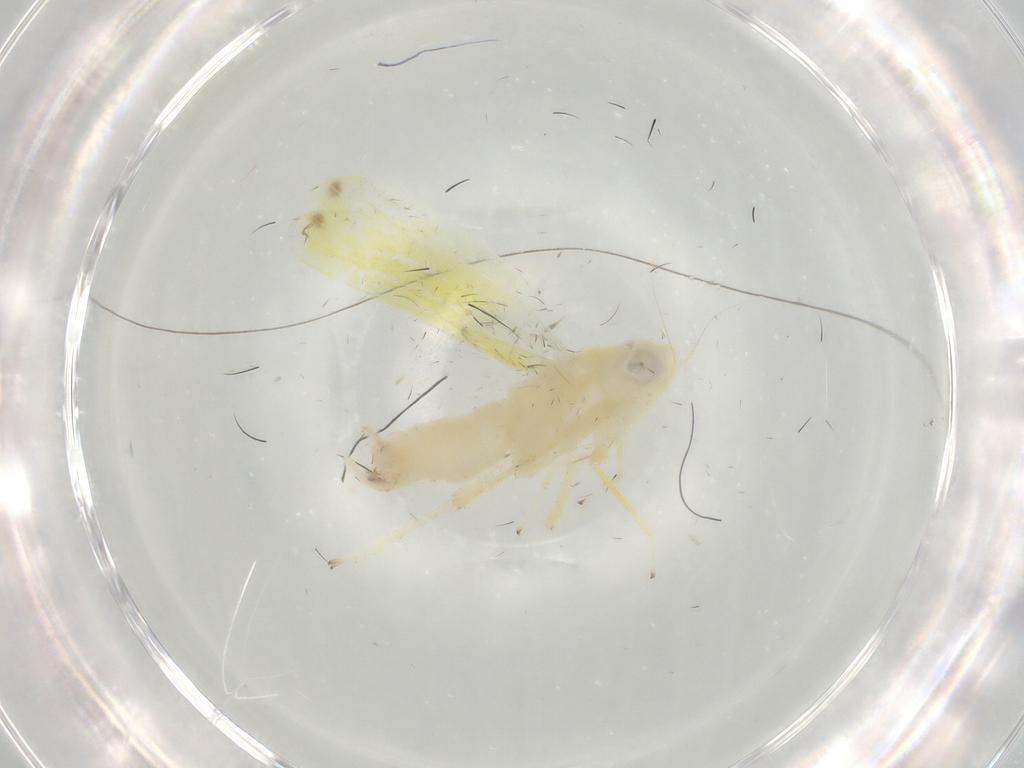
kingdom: Animalia
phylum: Arthropoda
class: Insecta
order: Hemiptera
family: Cicadellidae
